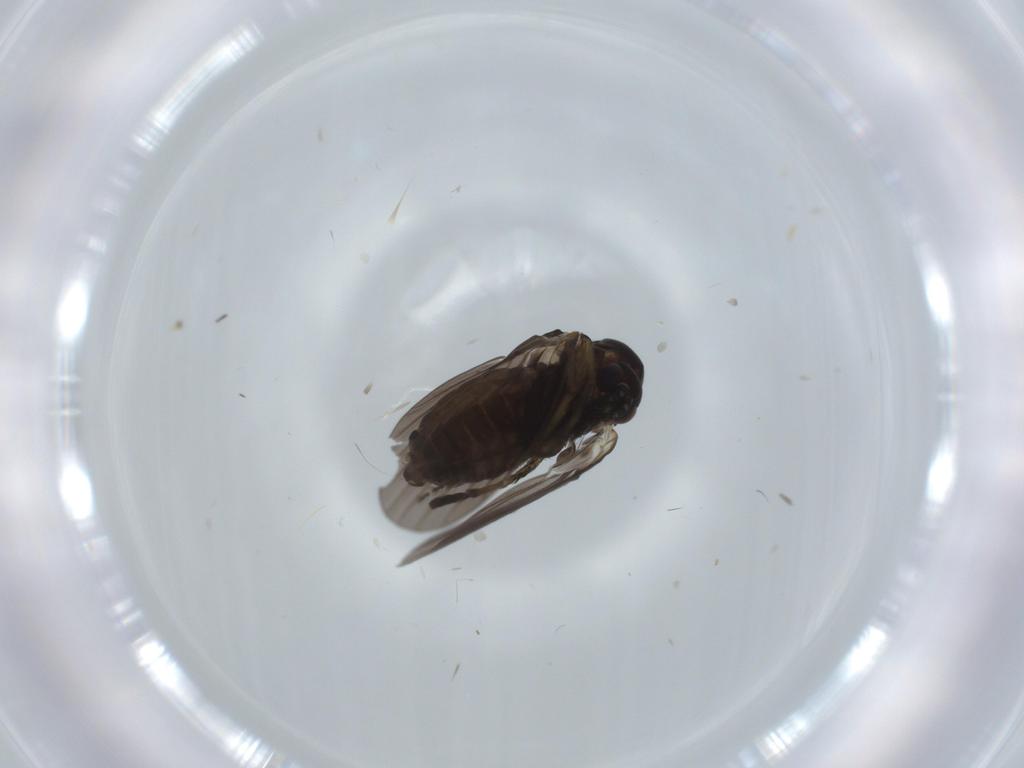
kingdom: Animalia
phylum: Arthropoda
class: Insecta
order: Diptera
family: Psychodidae
